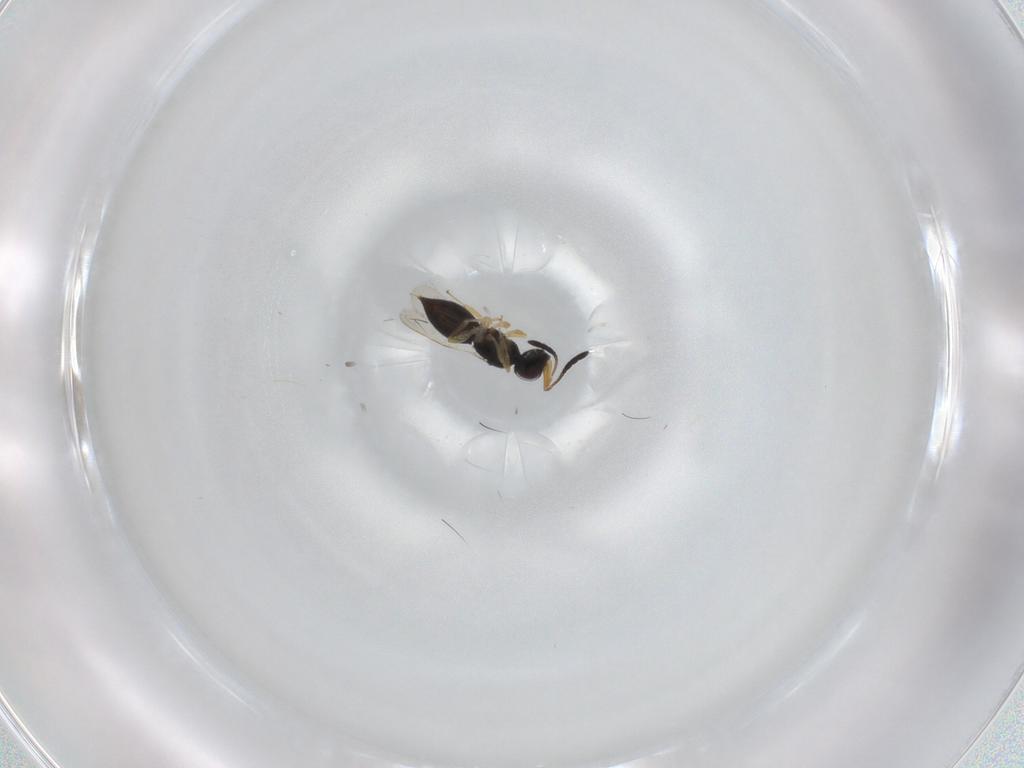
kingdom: Animalia
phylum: Arthropoda
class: Insecta
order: Hymenoptera
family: Ceraphronidae
